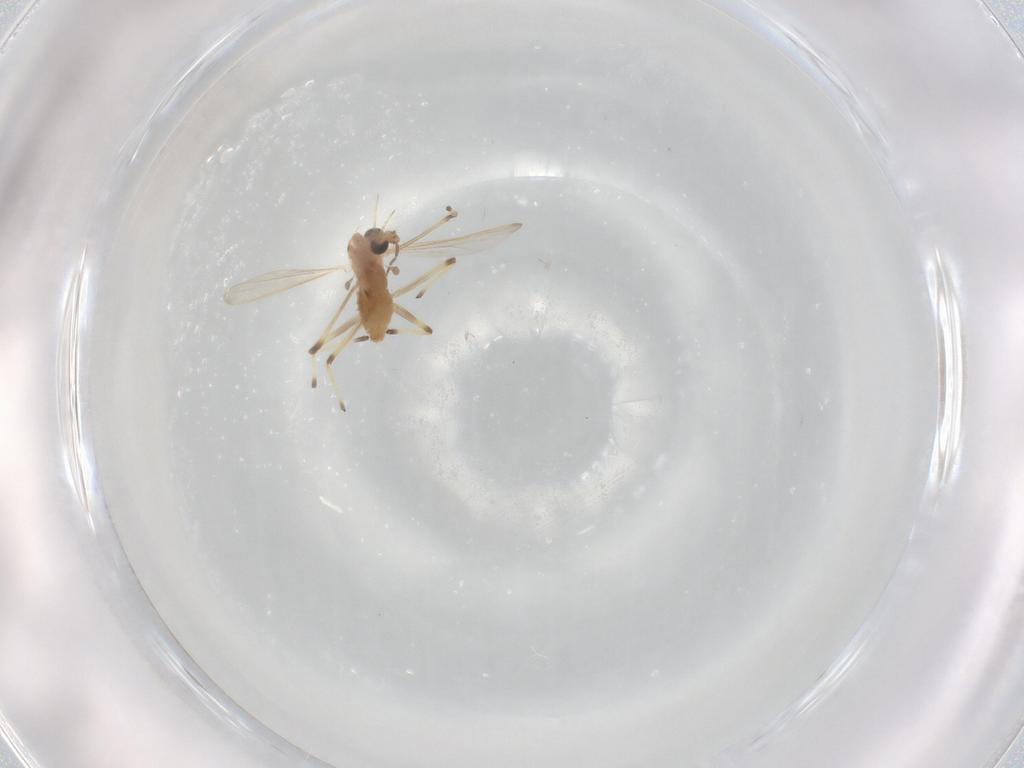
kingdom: Animalia
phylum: Arthropoda
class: Insecta
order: Diptera
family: Chironomidae
